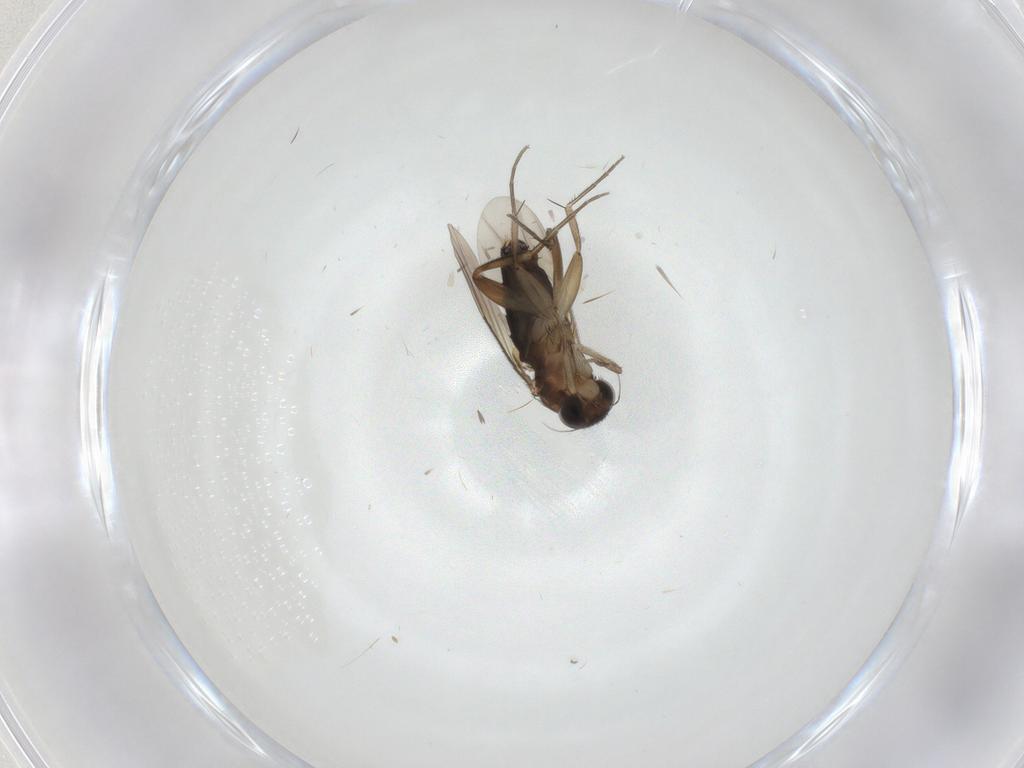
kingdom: Animalia
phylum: Arthropoda
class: Insecta
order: Diptera
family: Phoridae
